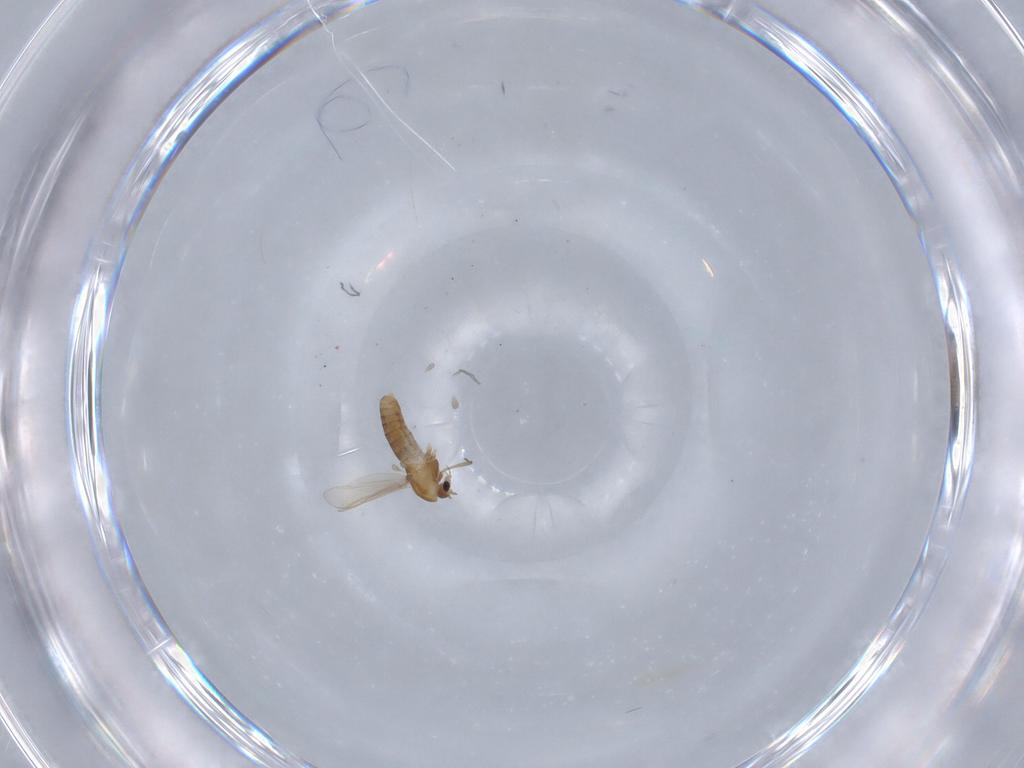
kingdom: Animalia
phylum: Arthropoda
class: Insecta
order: Diptera
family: Chironomidae
